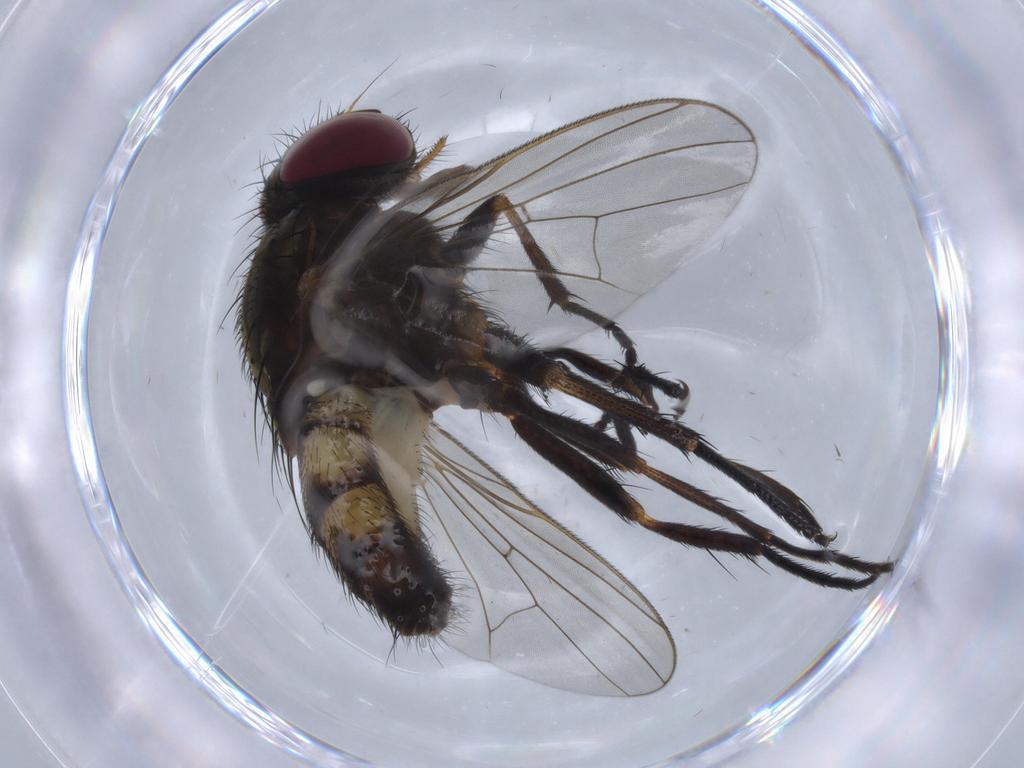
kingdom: Animalia
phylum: Arthropoda
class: Insecta
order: Diptera
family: Fannia
